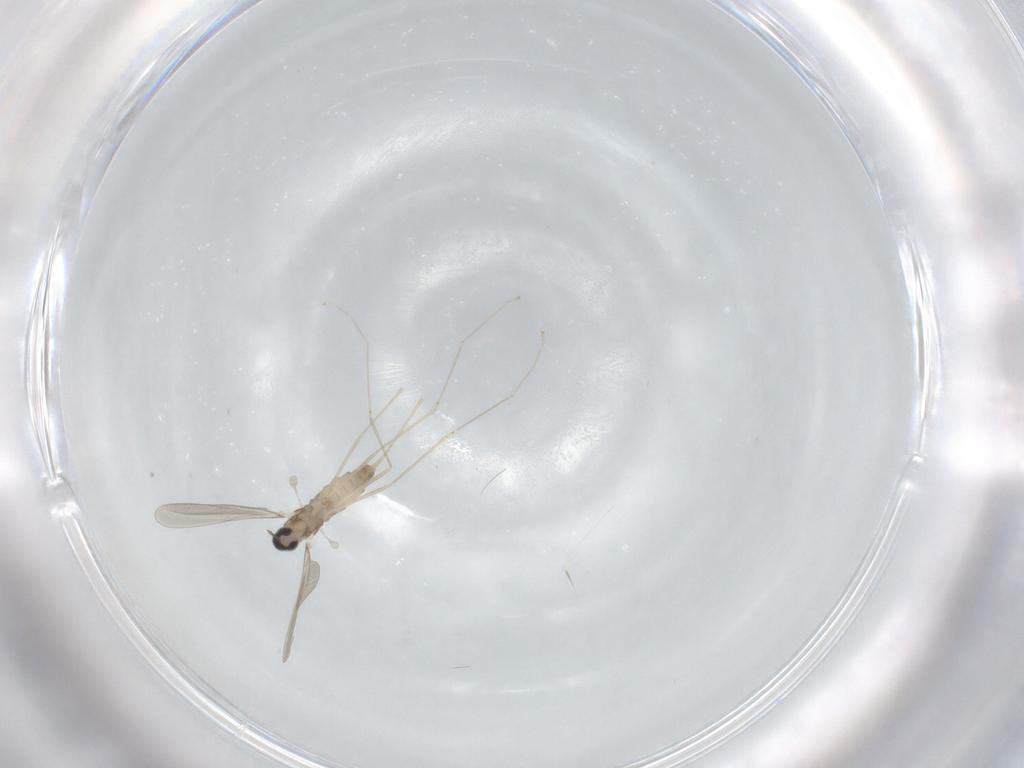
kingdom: Animalia
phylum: Arthropoda
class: Insecta
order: Diptera
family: Cecidomyiidae
